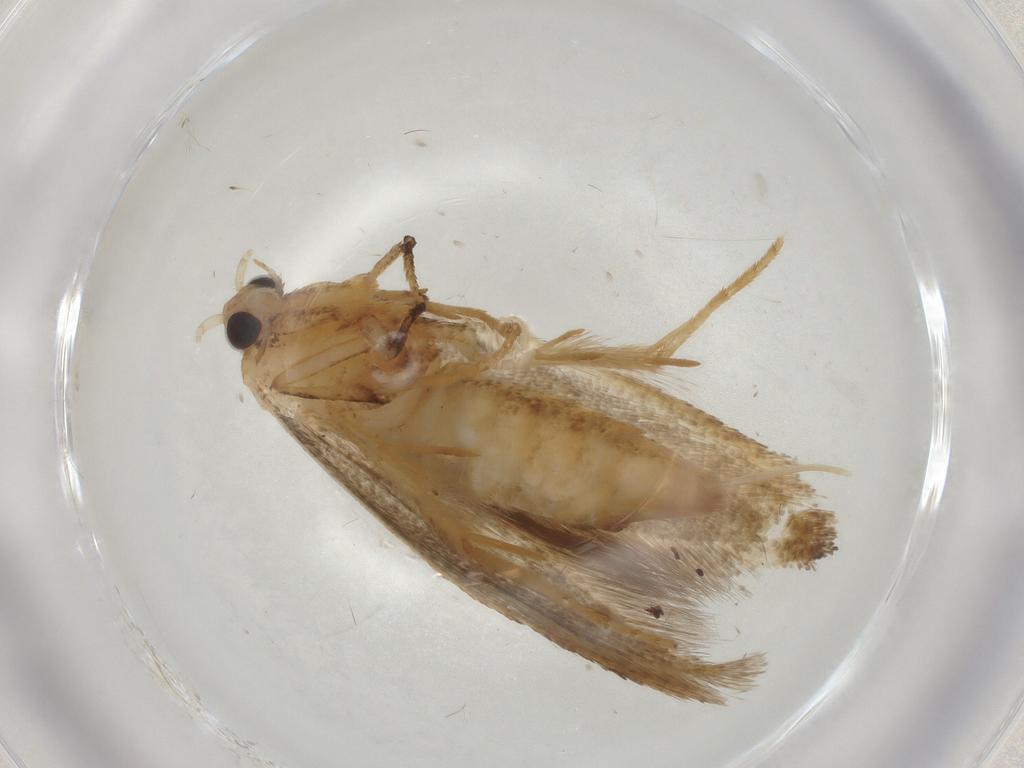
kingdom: Animalia
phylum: Arthropoda
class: Insecta
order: Lepidoptera
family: Nepticulidae
